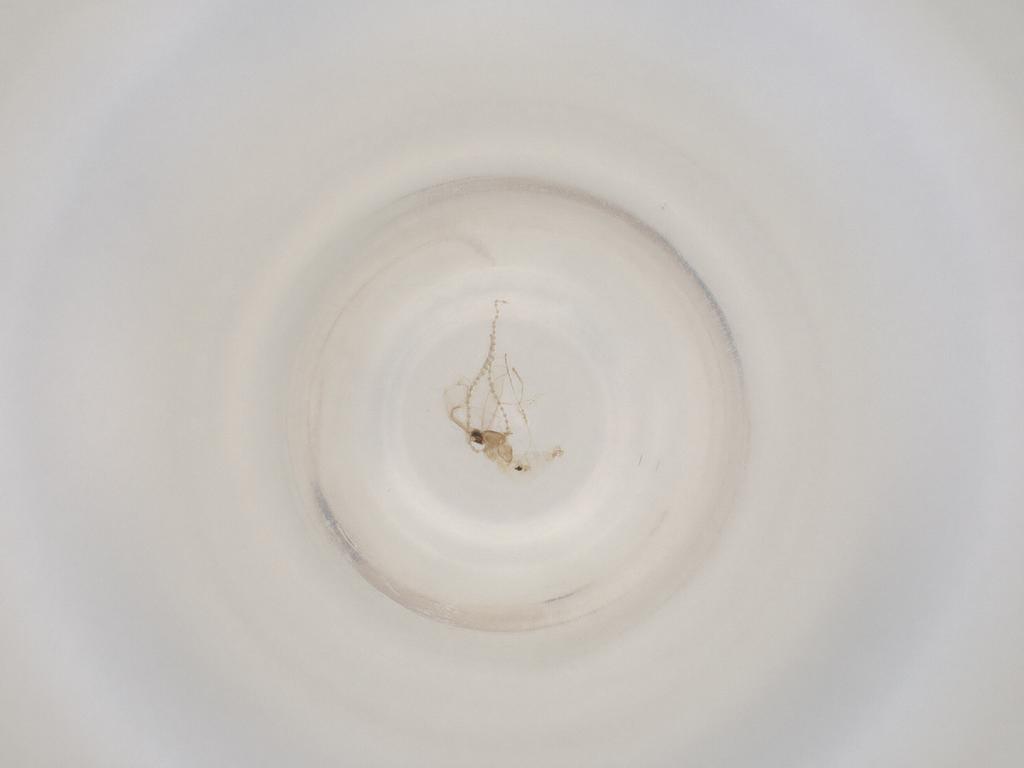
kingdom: Animalia
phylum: Arthropoda
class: Insecta
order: Diptera
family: Cecidomyiidae
